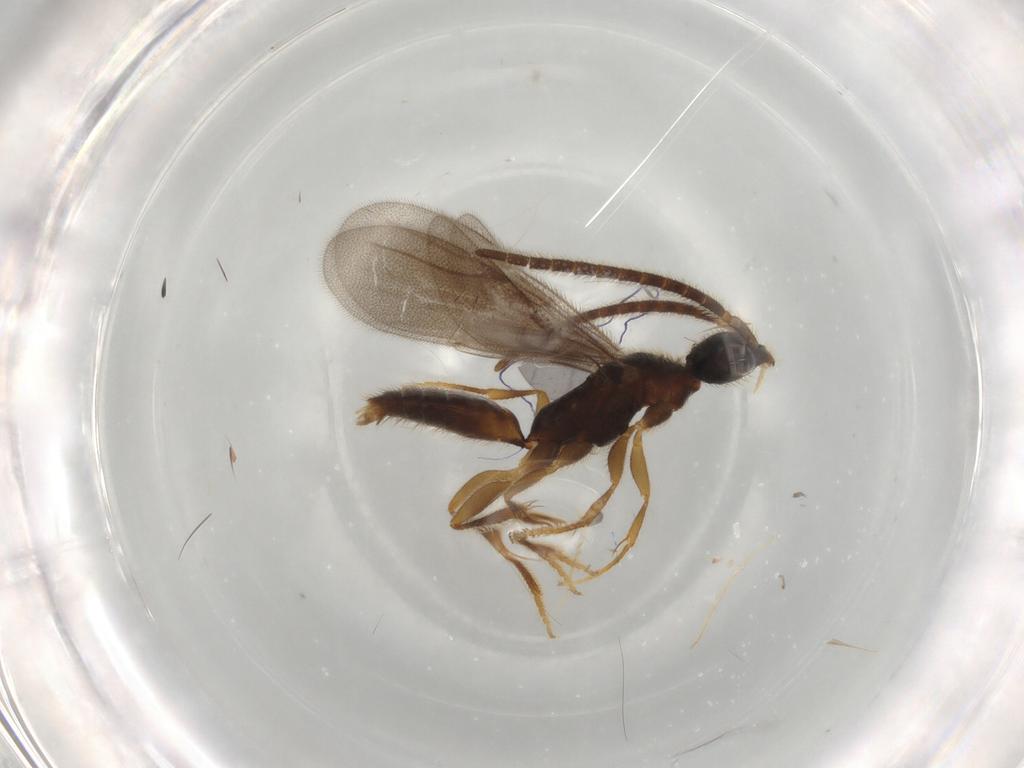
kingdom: Animalia
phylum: Arthropoda
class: Insecta
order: Hymenoptera
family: Bethylidae
